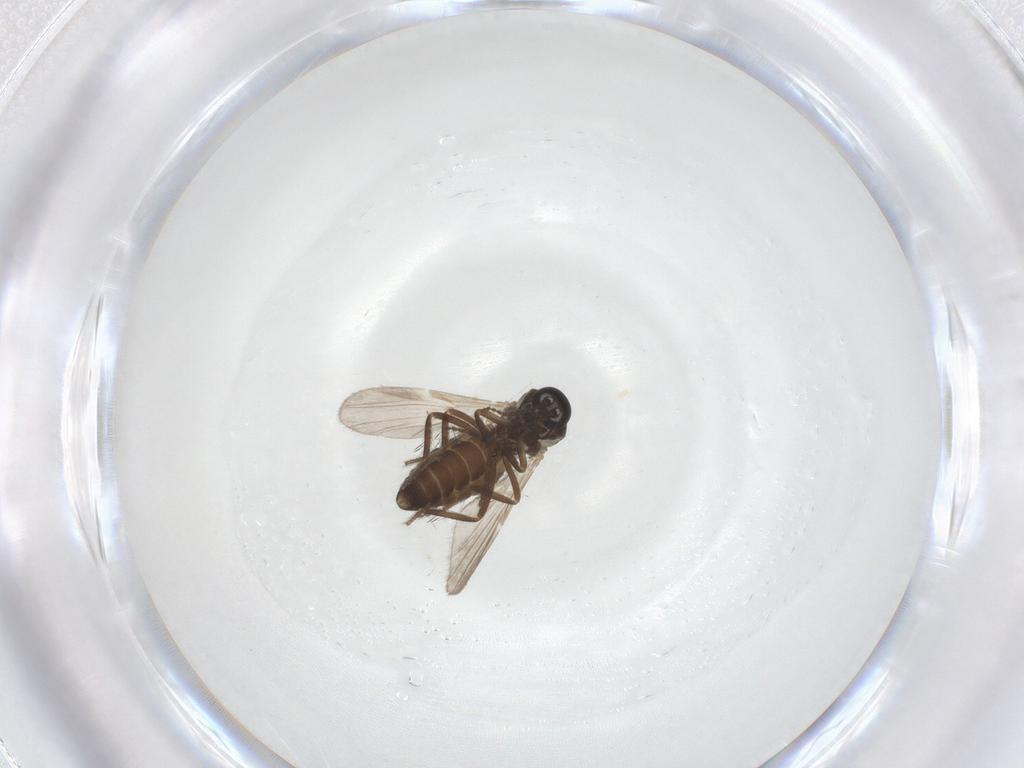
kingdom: Animalia
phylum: Arthropoda
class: Insecta
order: Diptera
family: Ceratopogonidae
